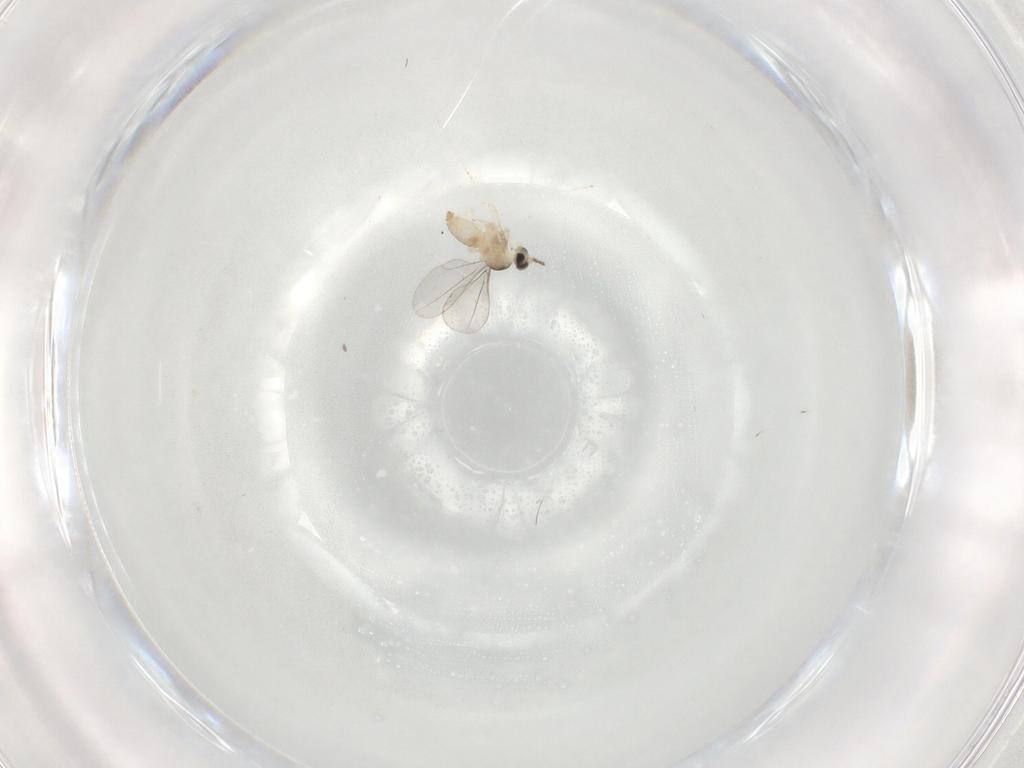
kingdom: Animalia
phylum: Arthropoda
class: Insecta
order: Diptera
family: Cecidomyiidae
